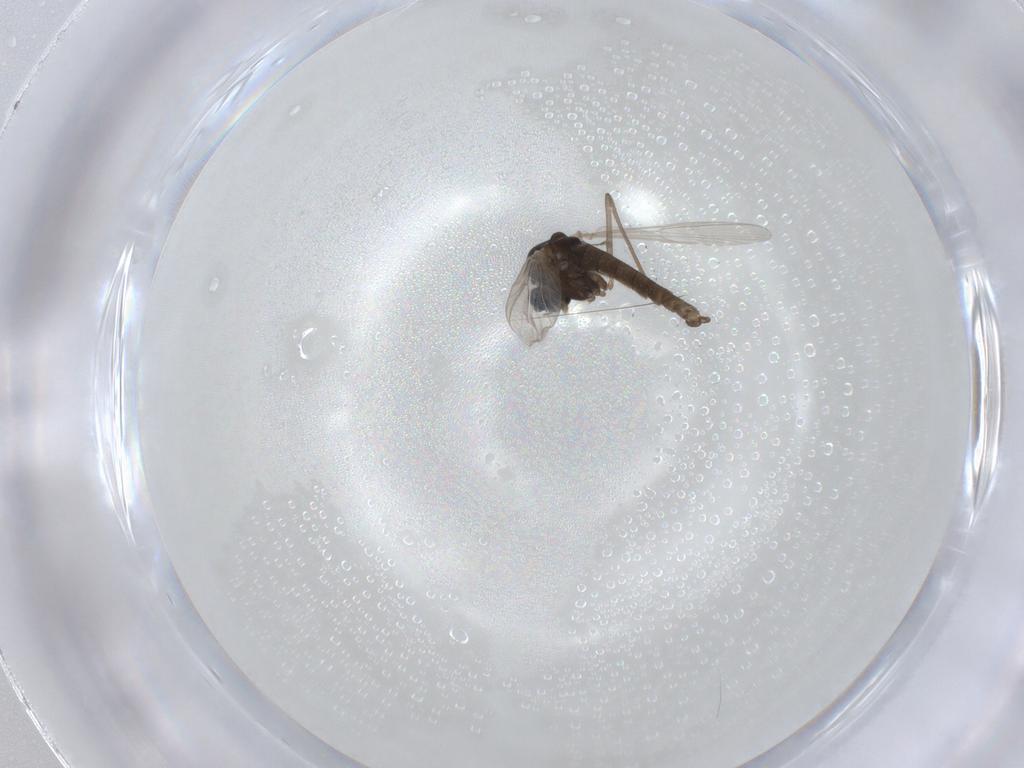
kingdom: Animalia
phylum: Arthropoda
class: Insecta
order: Diptera
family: Chironomidae
